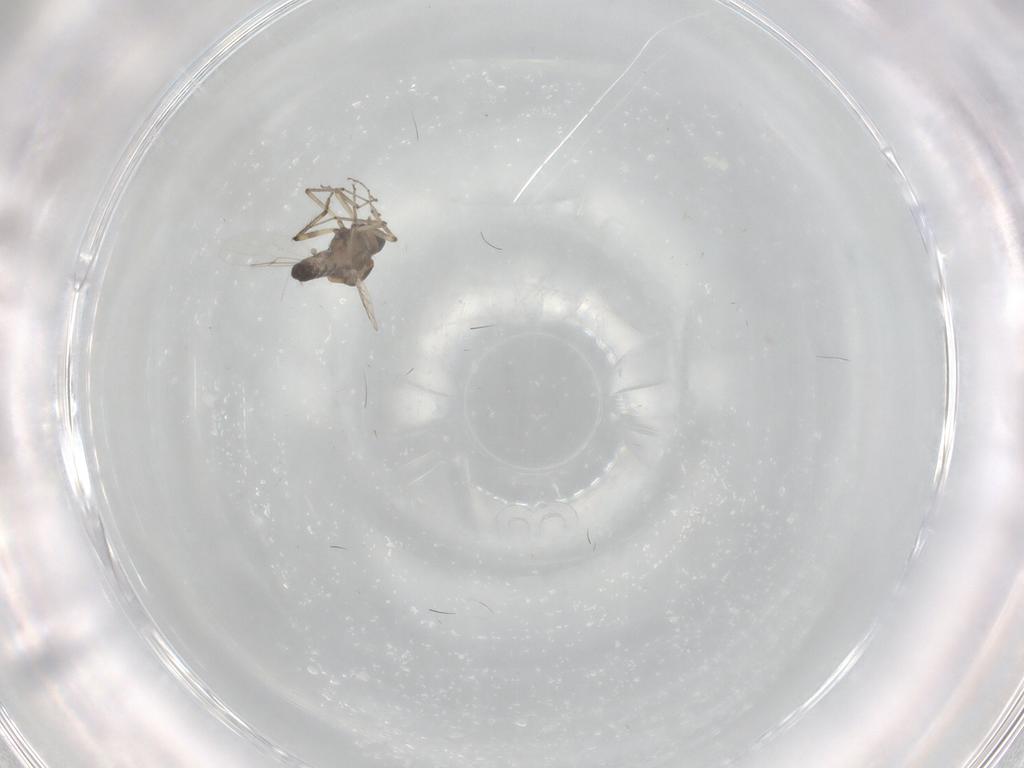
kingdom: Animalia
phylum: Arthropoda
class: Insecta
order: Diptera
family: Ceratopogonidae
